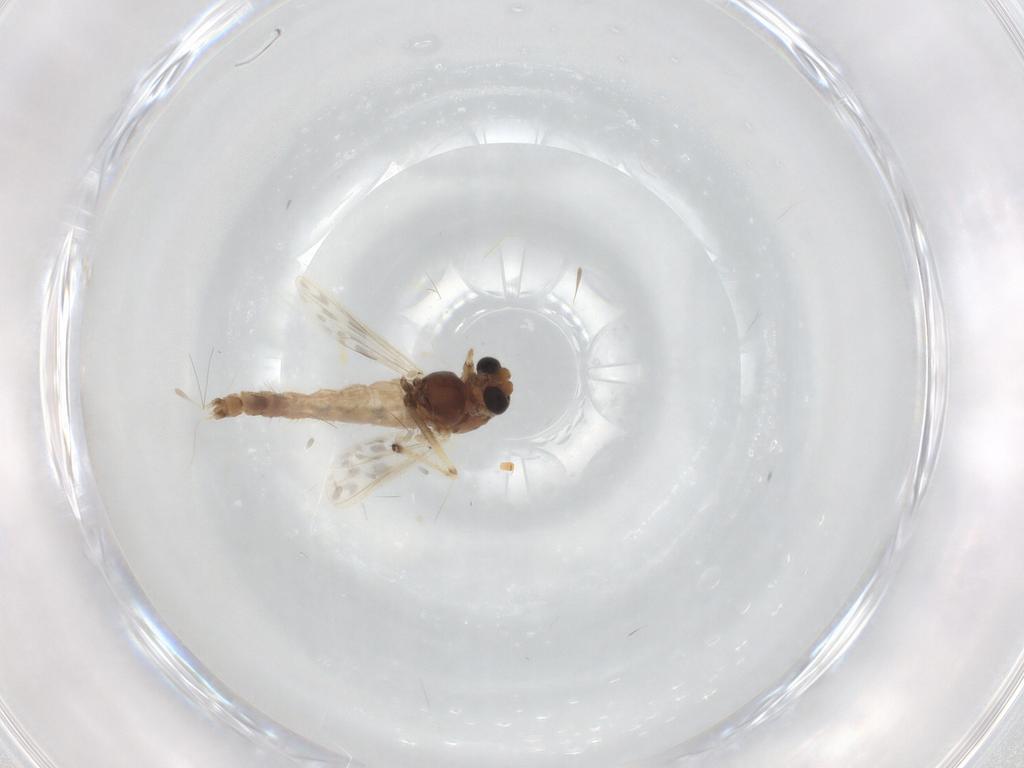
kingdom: Animalia
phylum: Arthropoda
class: Insecta
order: Diptera
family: Chironomidae
